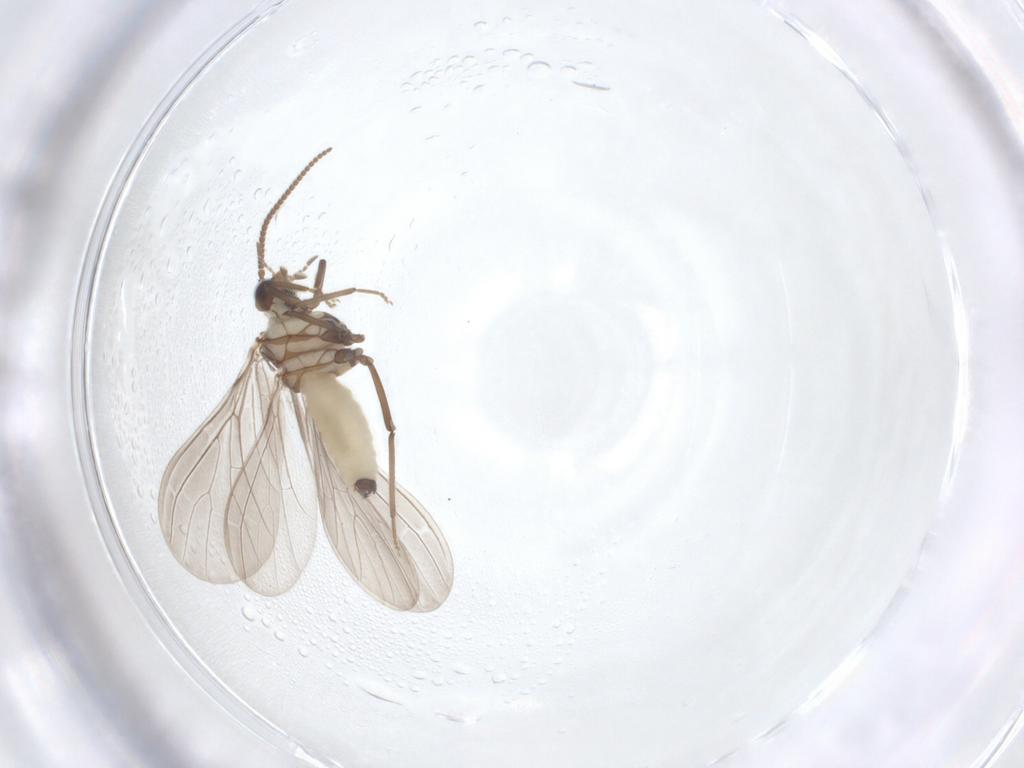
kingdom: Animalia
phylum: Arthropoda
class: Insecta
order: Neuroptera
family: Coniopterygidae
